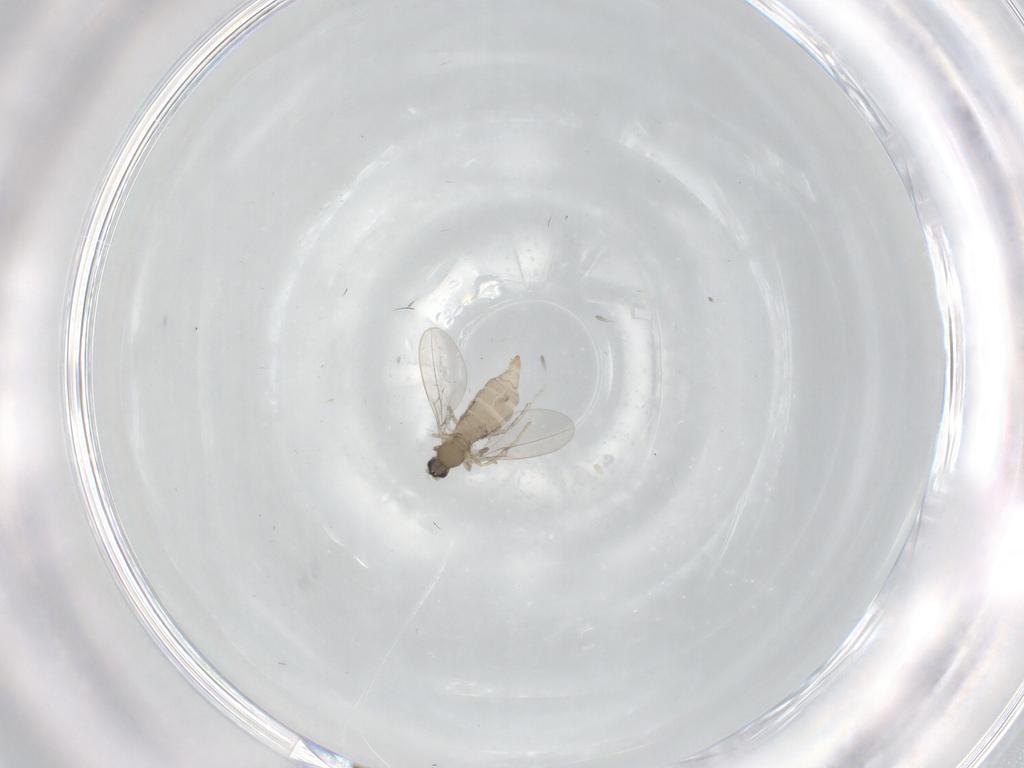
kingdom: Animalia
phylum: Arthropoda
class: Insecta
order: Diptera
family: Cecidomyiidae
